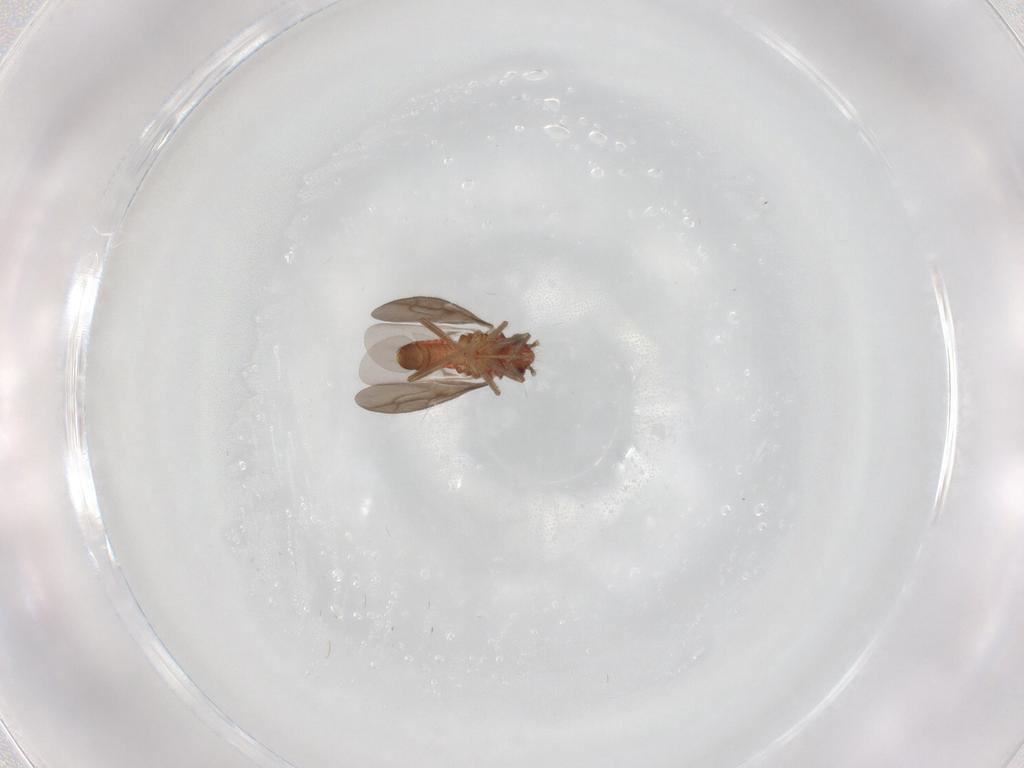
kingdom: Animalia
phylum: Arthropoda
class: Insecta
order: Hemiptera
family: Ceratocombidae
